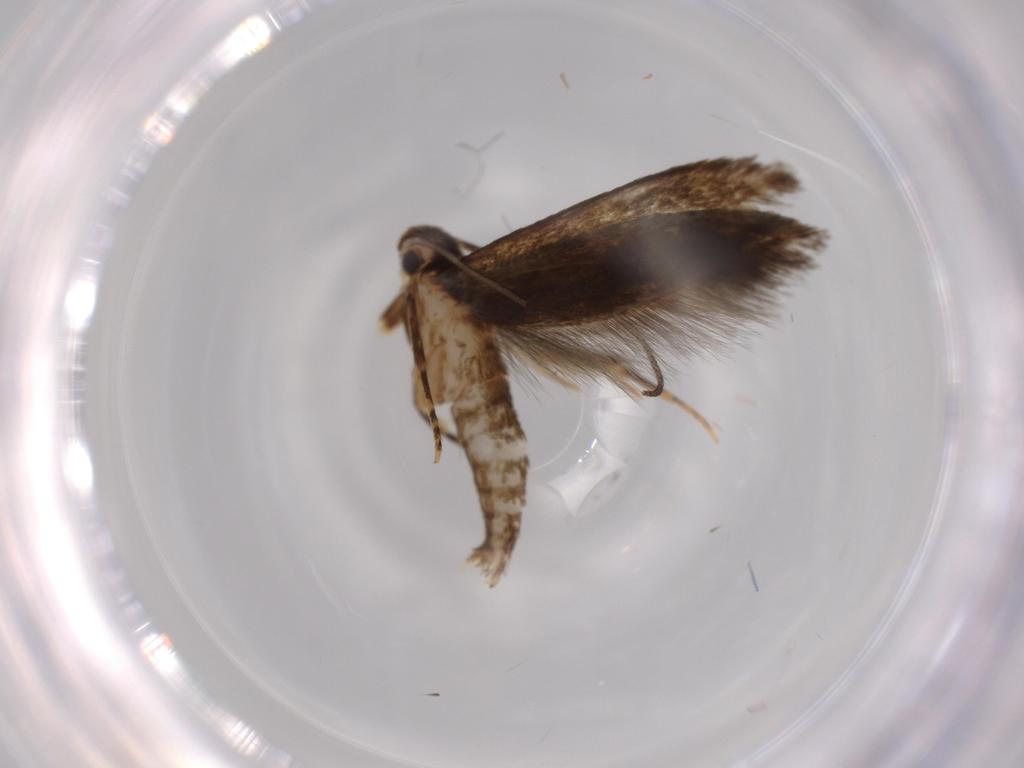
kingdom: Animalia
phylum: Arthropoda
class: Insecta
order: Lepidoptera
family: Tineidae
